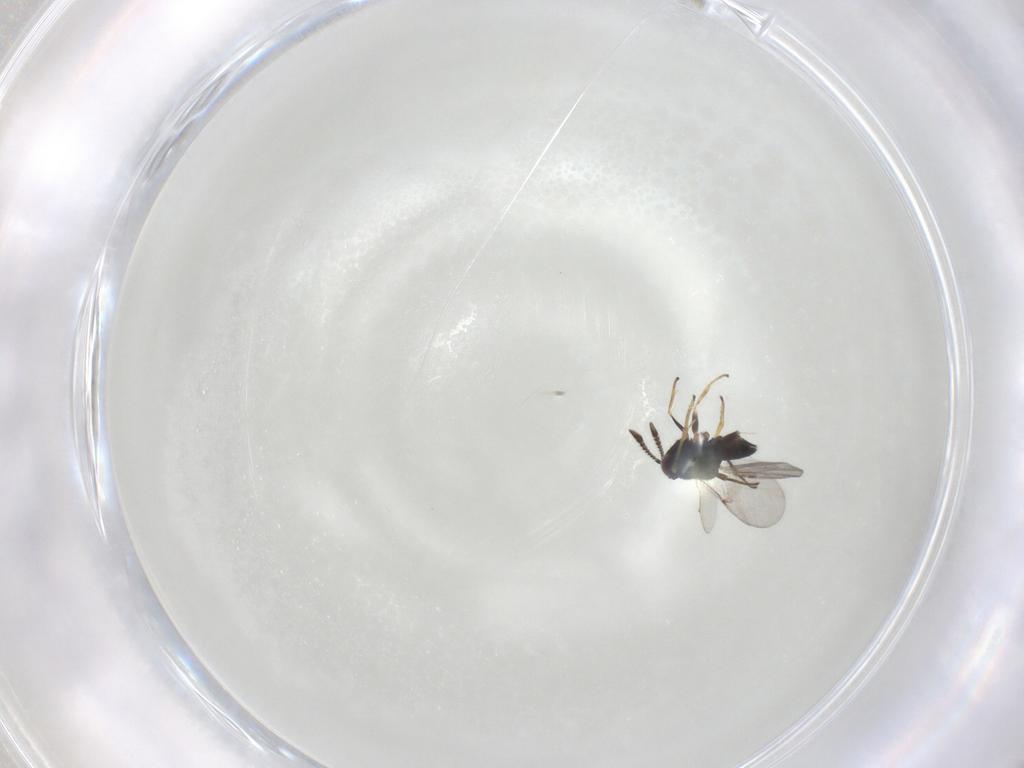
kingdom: Animalia
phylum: Arthropoda
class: Insecta
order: Hymenoptera
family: Encyrtidae
